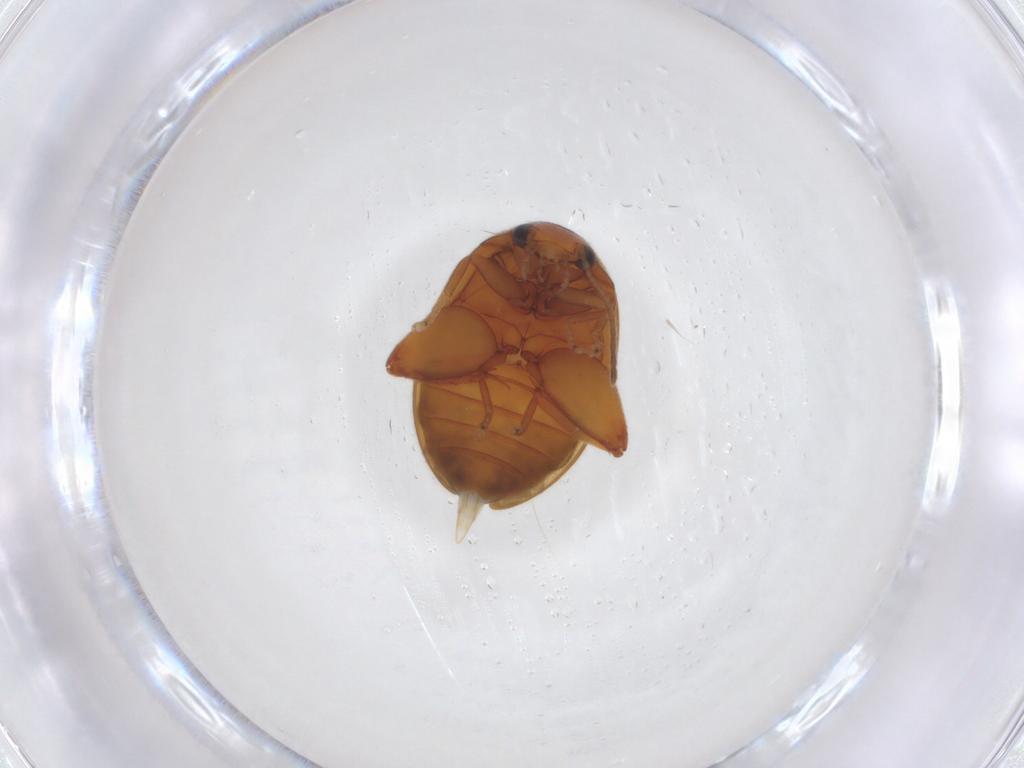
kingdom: Animalia
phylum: Arthropoda
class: Insecta
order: Coleoptera
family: Scirtidae
